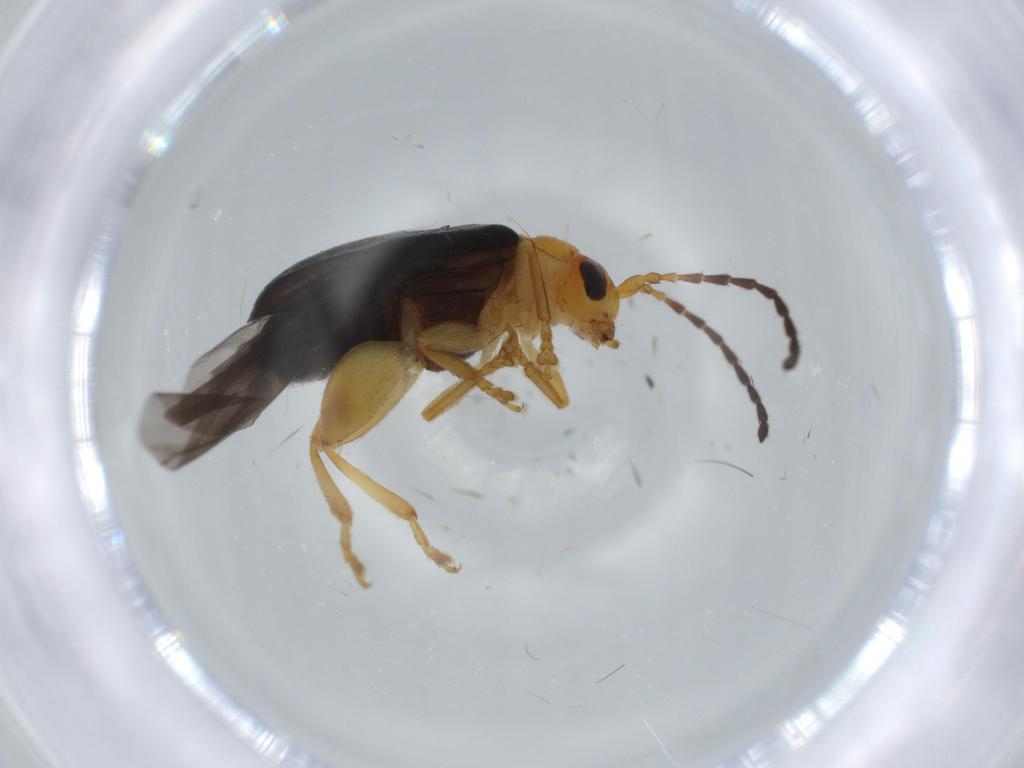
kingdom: Animalia
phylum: Arthropoda
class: Insecta
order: Coleoptera
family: Chrysomelidae
